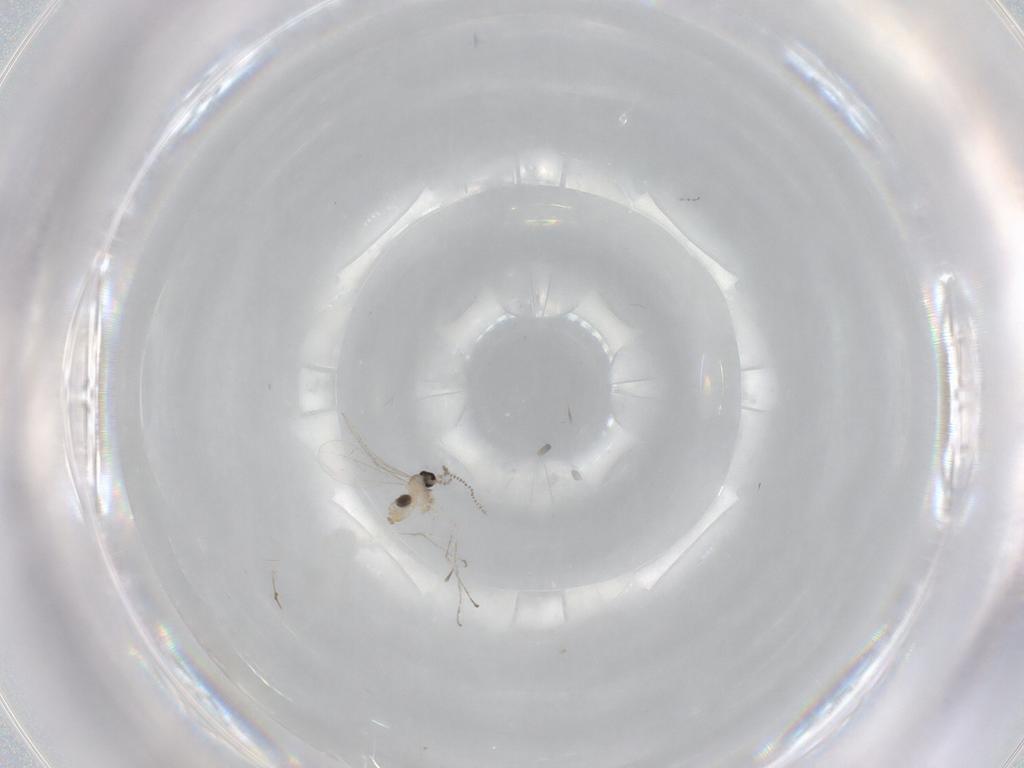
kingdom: Animalia
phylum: Arthropoda
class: Insecta
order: Diptera
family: Cecidomyiidae
